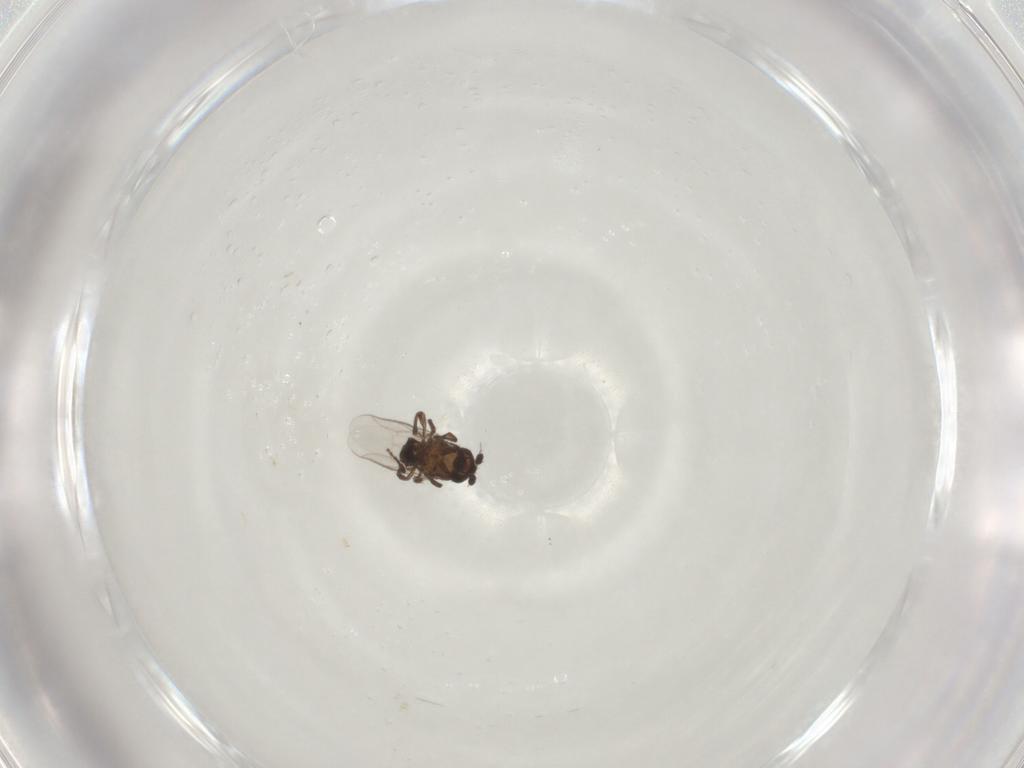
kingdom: Animalia
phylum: Arthropoda
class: Insecta
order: Diptera
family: Sphaeroceridae
